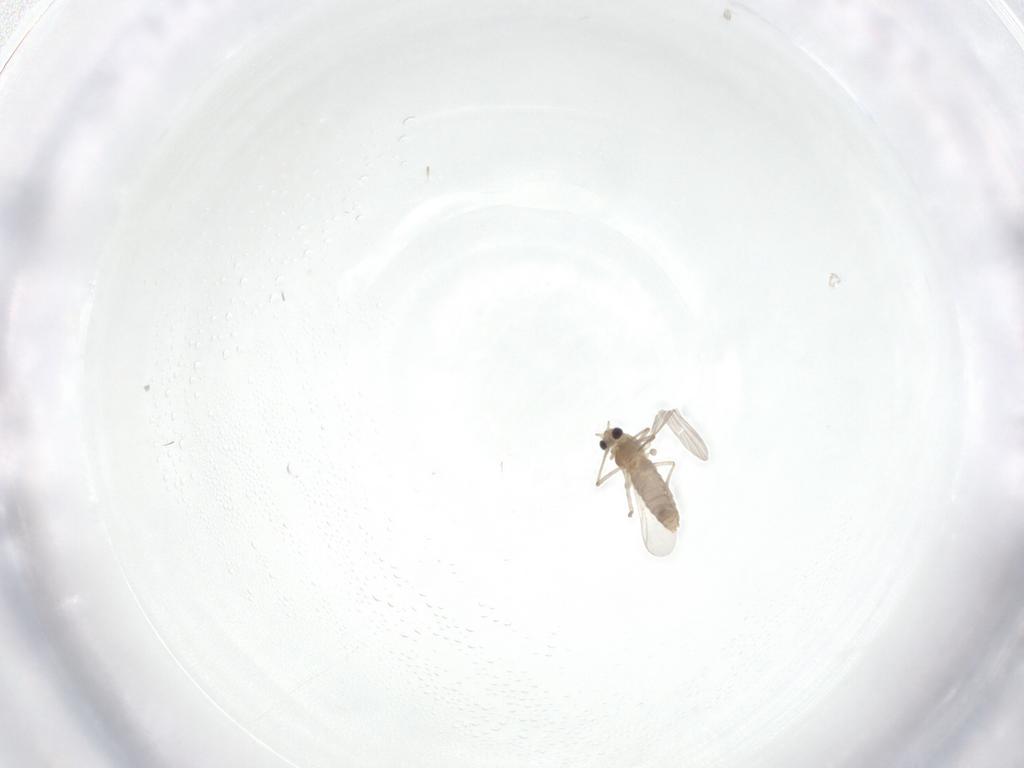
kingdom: Animalia
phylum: Arthropoda
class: Insecta
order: Diptera
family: Chironomidae
